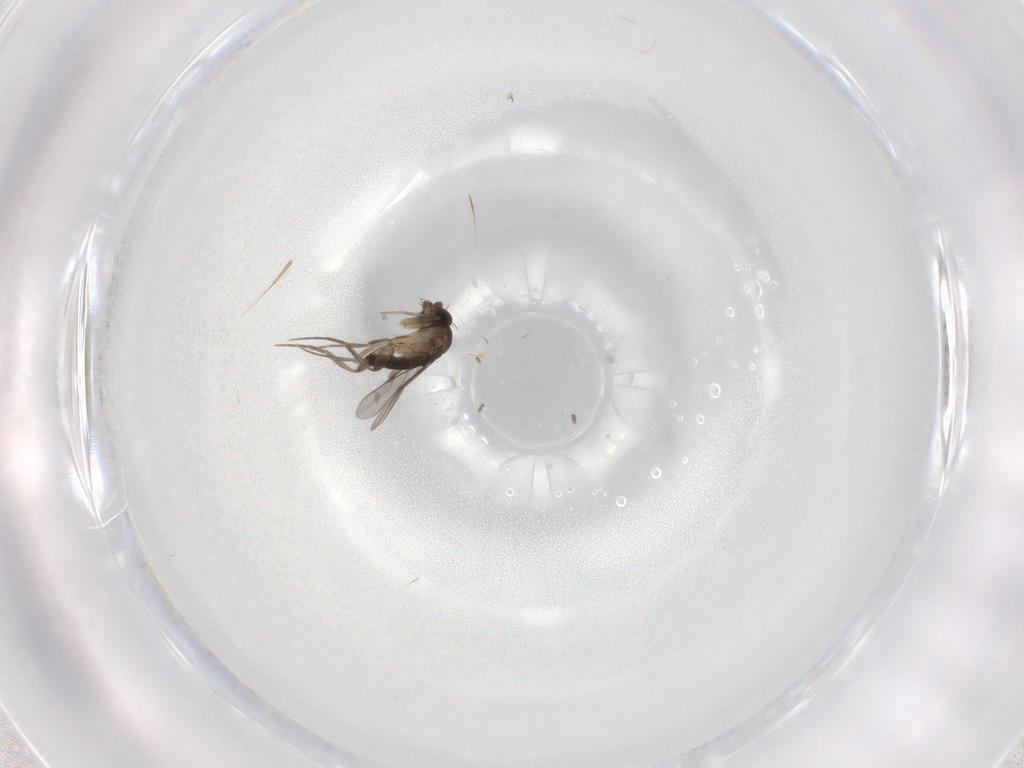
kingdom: Animalia
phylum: Arthropoda
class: Insecta
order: Diptera
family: Phoridae
